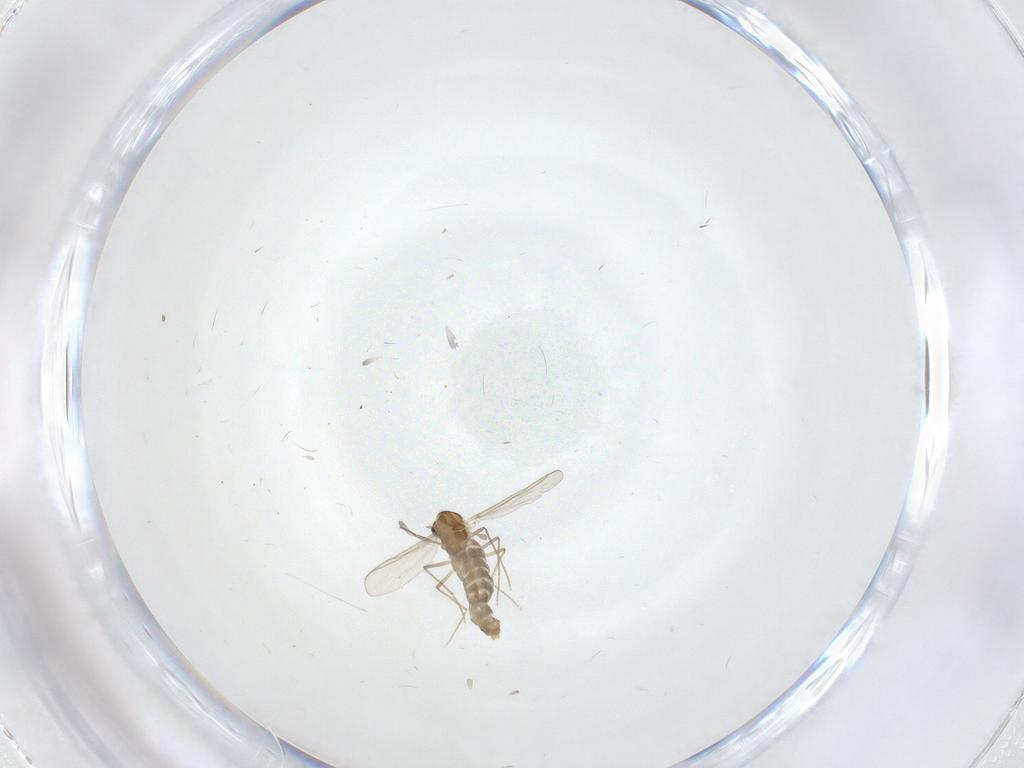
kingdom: Animalia
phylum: Arthropoda
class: Insecta
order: Diptera
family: Cecidomyiidae
